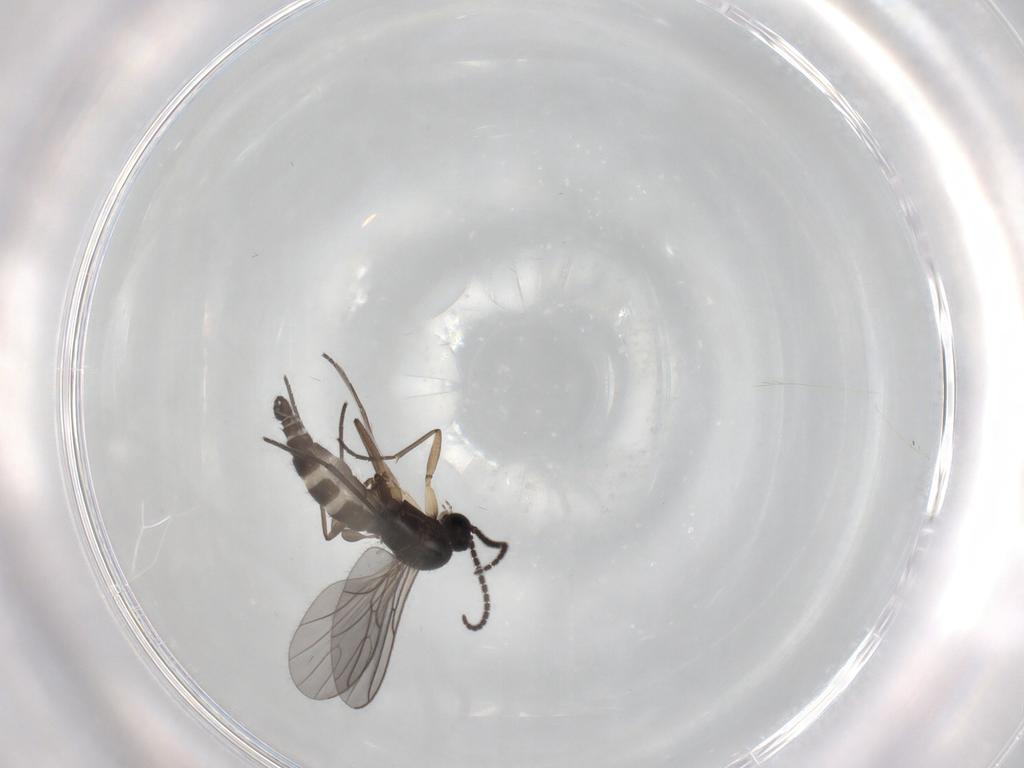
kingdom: Animalia
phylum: Arthropoda
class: Insecta
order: Diptera
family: Sciaridae
